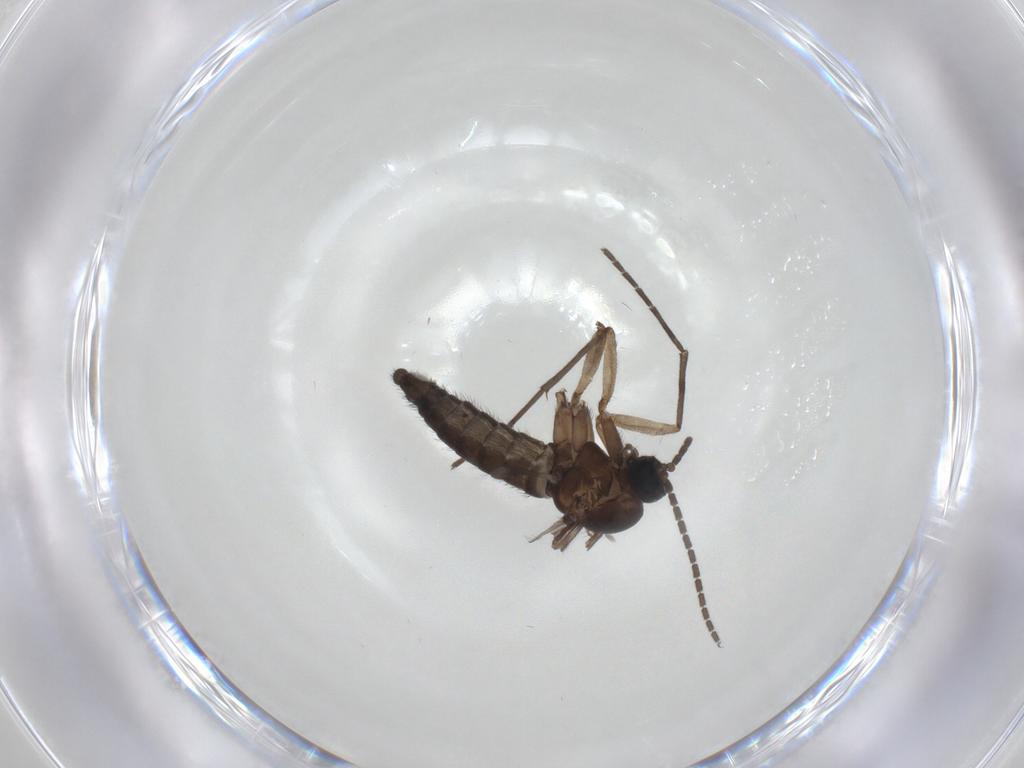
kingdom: Animalia
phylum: Arthropoda
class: Insecta
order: Diptera
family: Sciaridae
